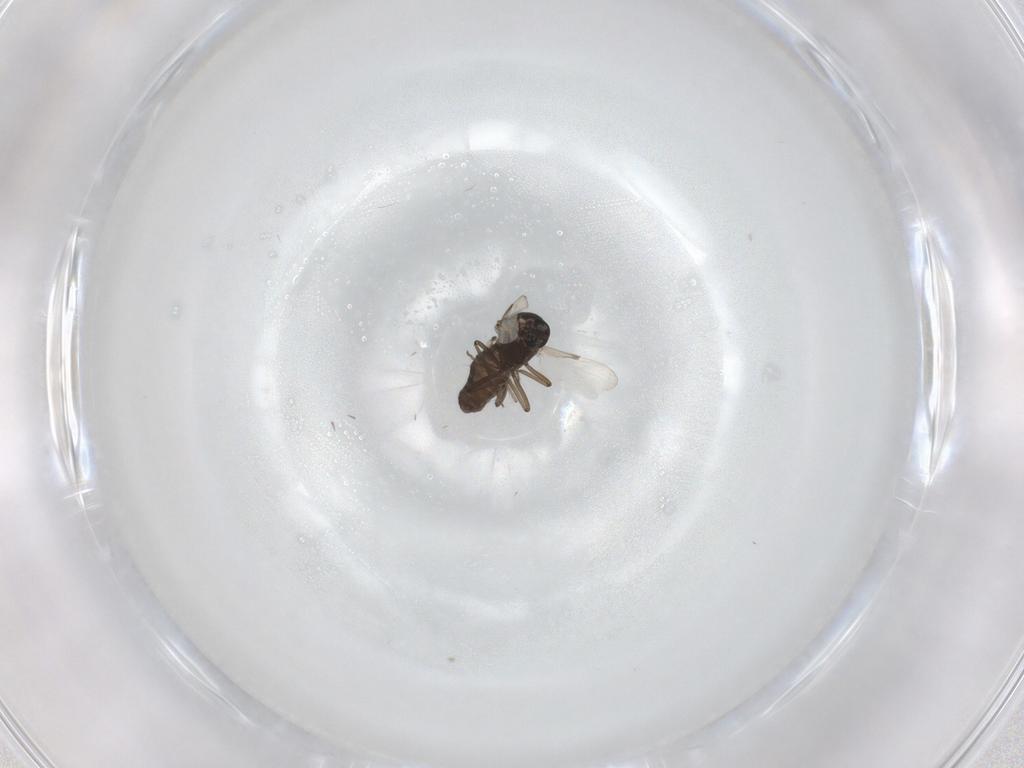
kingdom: Animalia
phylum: Arthropoda
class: Insecta
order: Diptera
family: Ceratopogonidae
